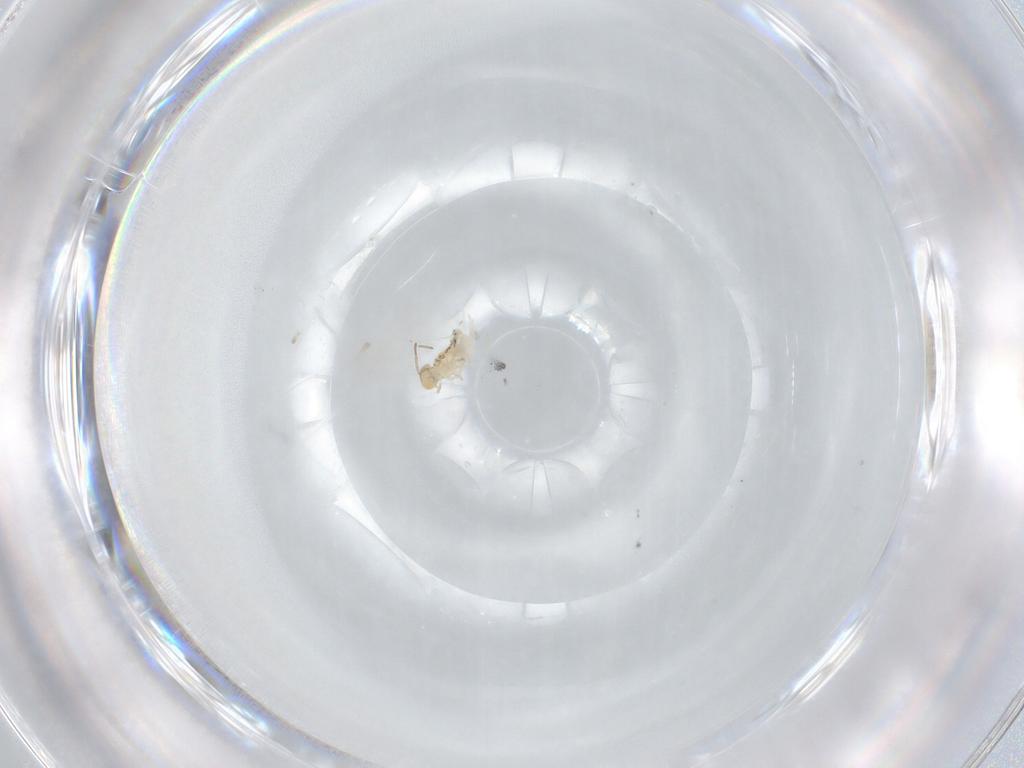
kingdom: Animalia
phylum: Arthropoda
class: Collembola
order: Symphypleona
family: Bourletiellidae
